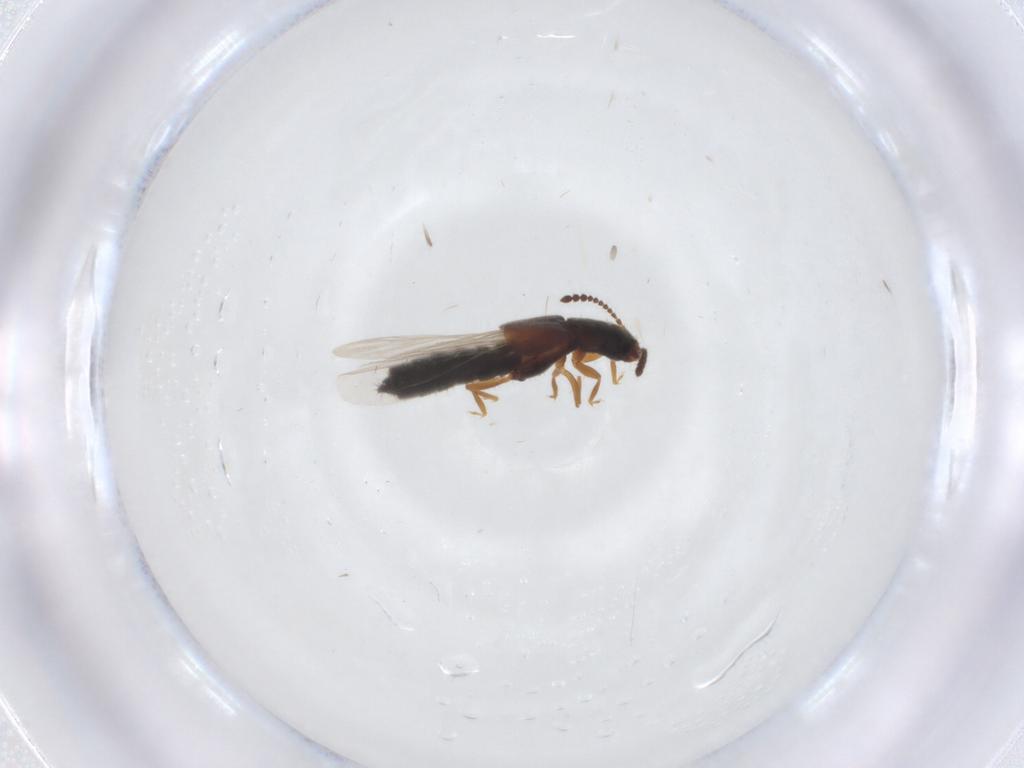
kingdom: Animalia
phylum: Arthropoda
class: Insecta
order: Coleoptera
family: Staphylinidae
